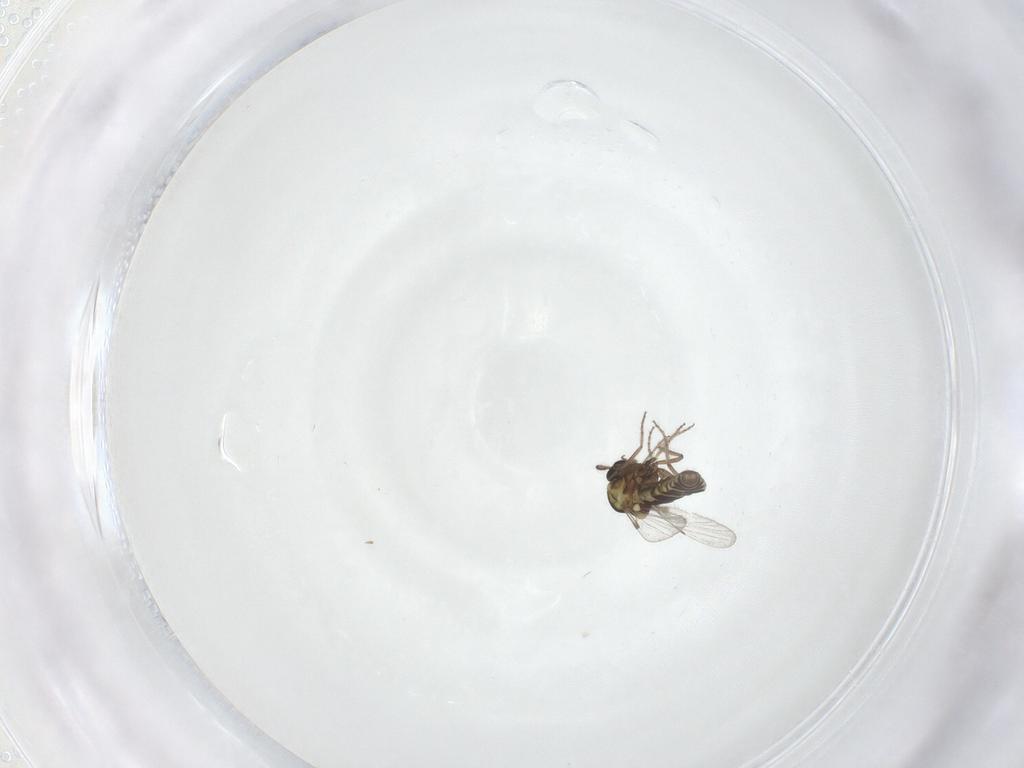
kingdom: Animalia
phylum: Arthropoda
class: Insecta
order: Diptera
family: Ceratopogonidae
